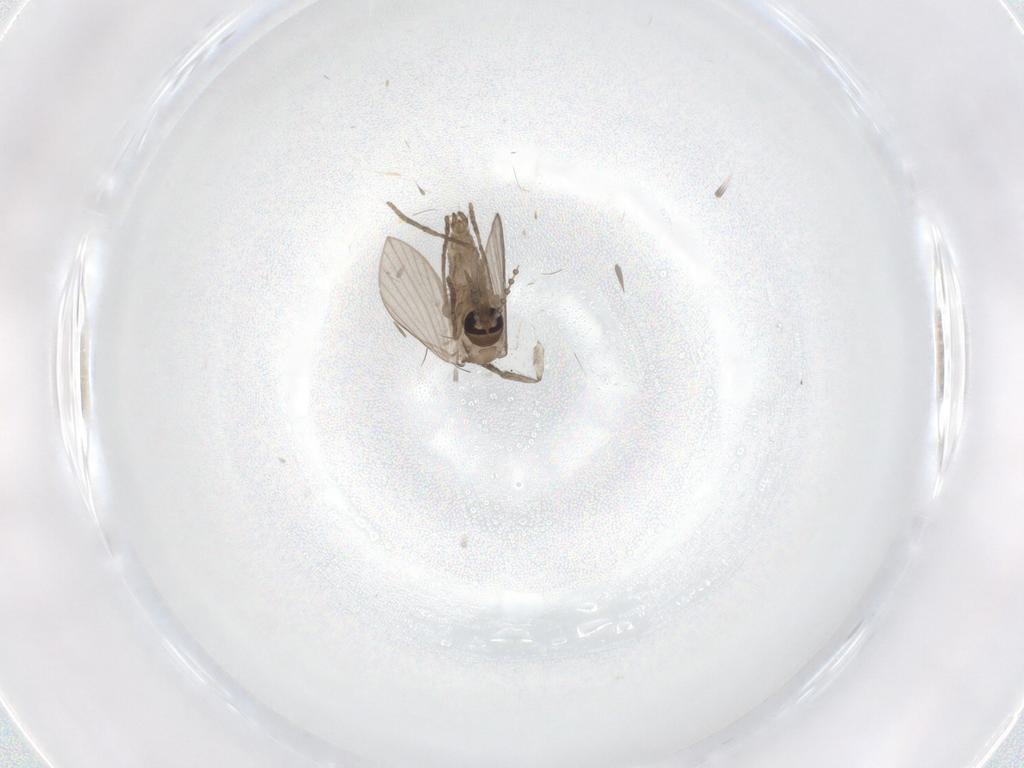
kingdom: Animalia
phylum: Arthropoda
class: Insecta
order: Diptera
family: Psychodidae
